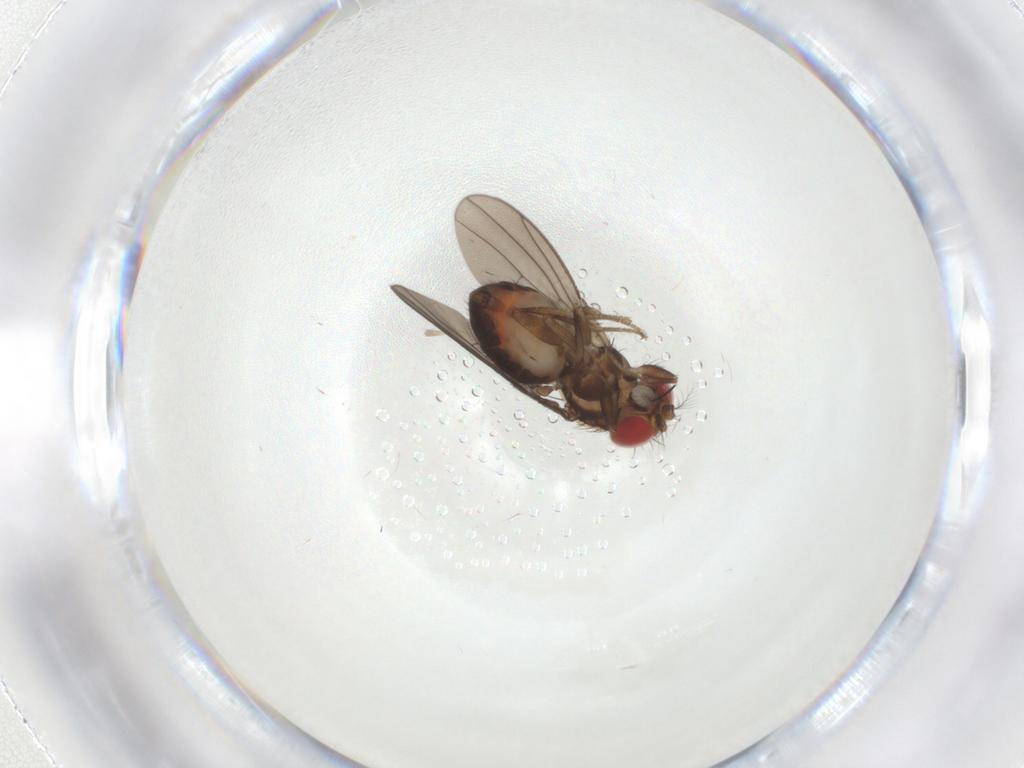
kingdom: Animalia
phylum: Arthropoda
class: Insecta
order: Diptera
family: Drosophilidae
